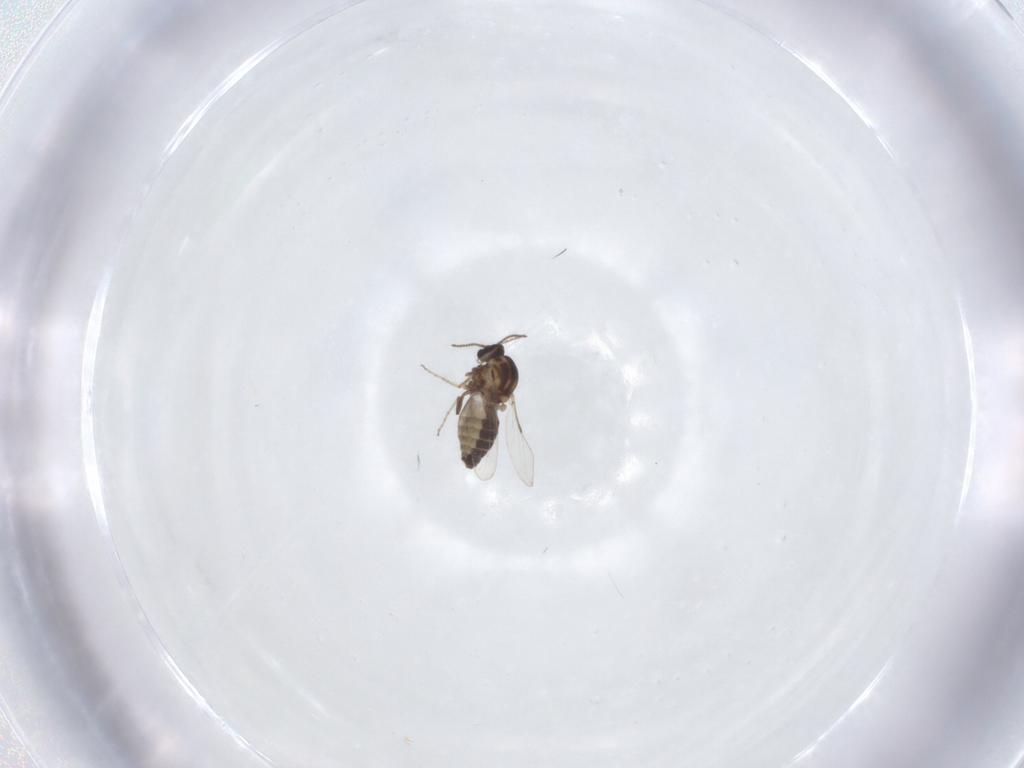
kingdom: Animalia
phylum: Arthropoda
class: Insecta
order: Diptera
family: Ceratopogonidae
